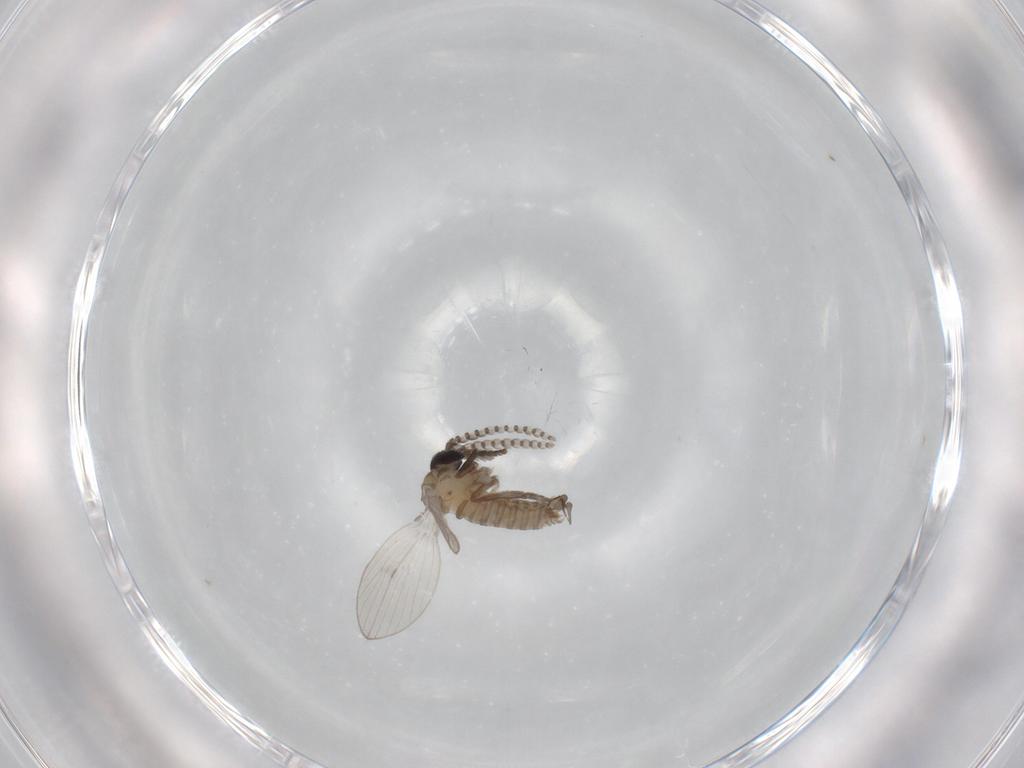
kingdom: Animalia
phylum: Arthropoda
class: Insecta
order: Diptera
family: Psychodidae
